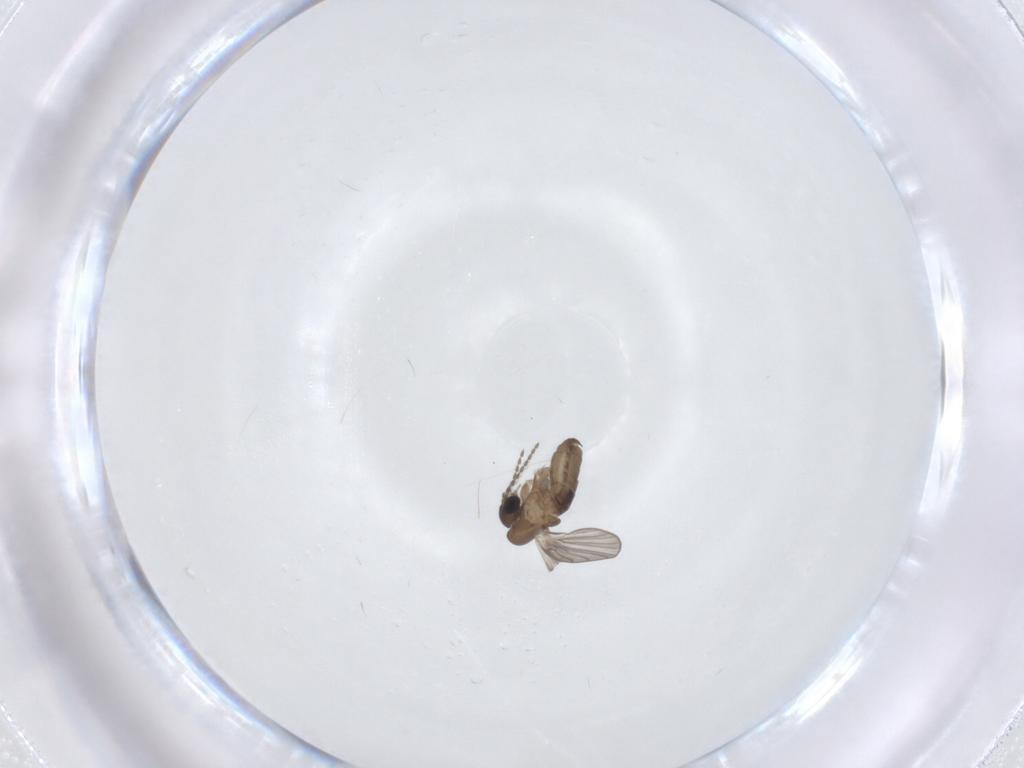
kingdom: Animalia
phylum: Arthropoda
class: Insecta
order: Diptera
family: Psychodidae
